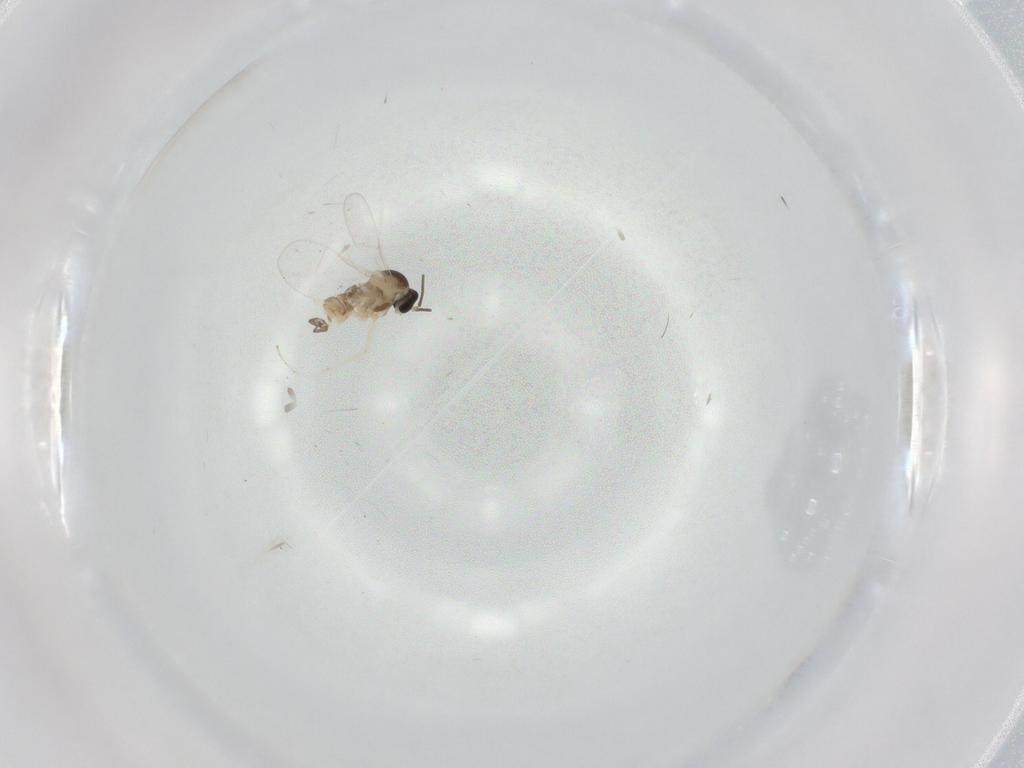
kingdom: Animalia
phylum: Arthropoda
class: Insecta
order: Diptera
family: Cecidomyiidae
